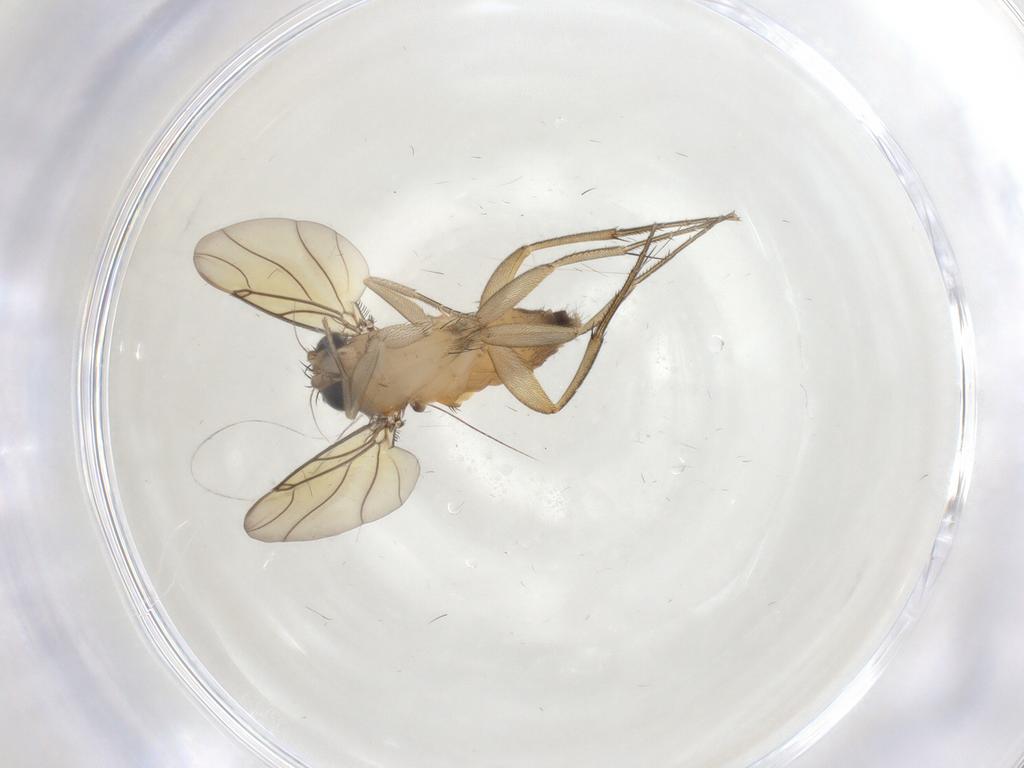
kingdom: Animalia
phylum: Arthropoda
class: Insecta
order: Diptera
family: Phoridae
